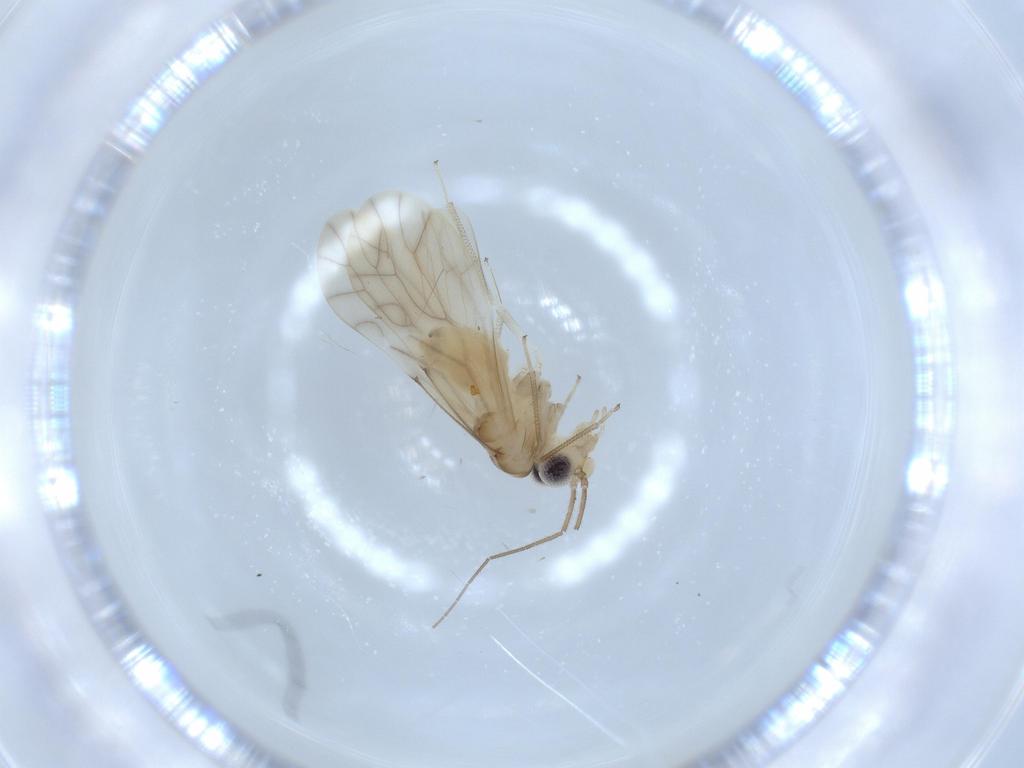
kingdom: Animalia
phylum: Arthropoda
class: Insecta
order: Psocodea
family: Caeciliusidae
